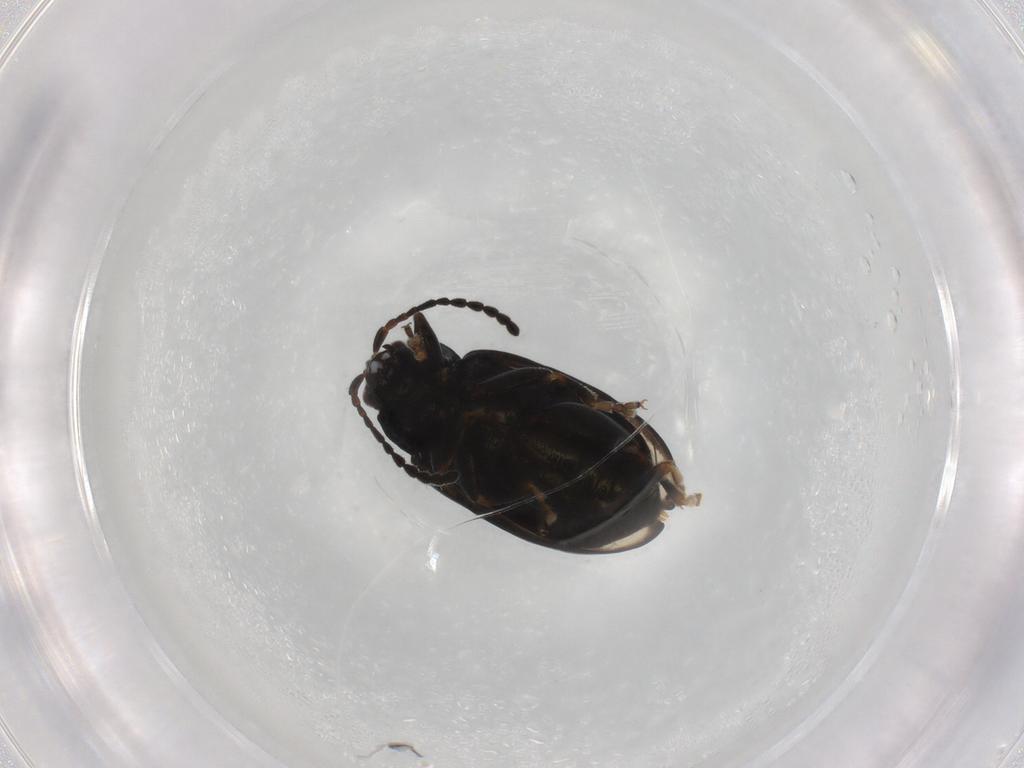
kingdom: Animalia
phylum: Arthropoda
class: Insecta
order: Coleoptera
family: Chrysomelidae
